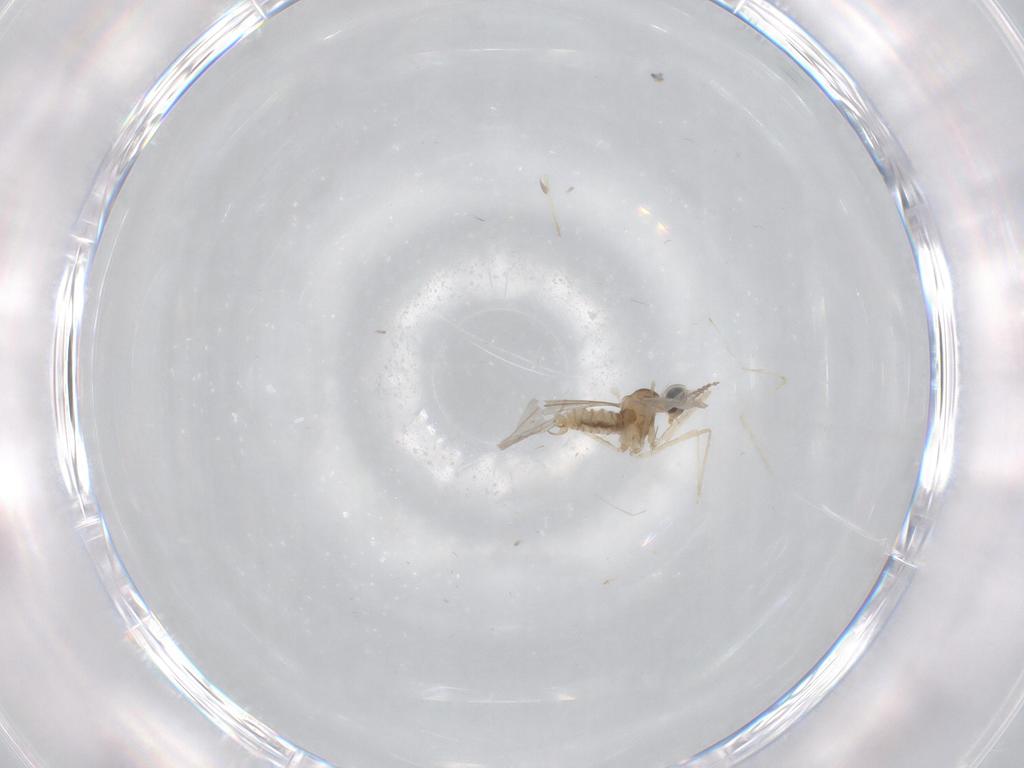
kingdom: Animalia
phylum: Arthropoda
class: Insecta
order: Diptera
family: Cecidomyiidae
